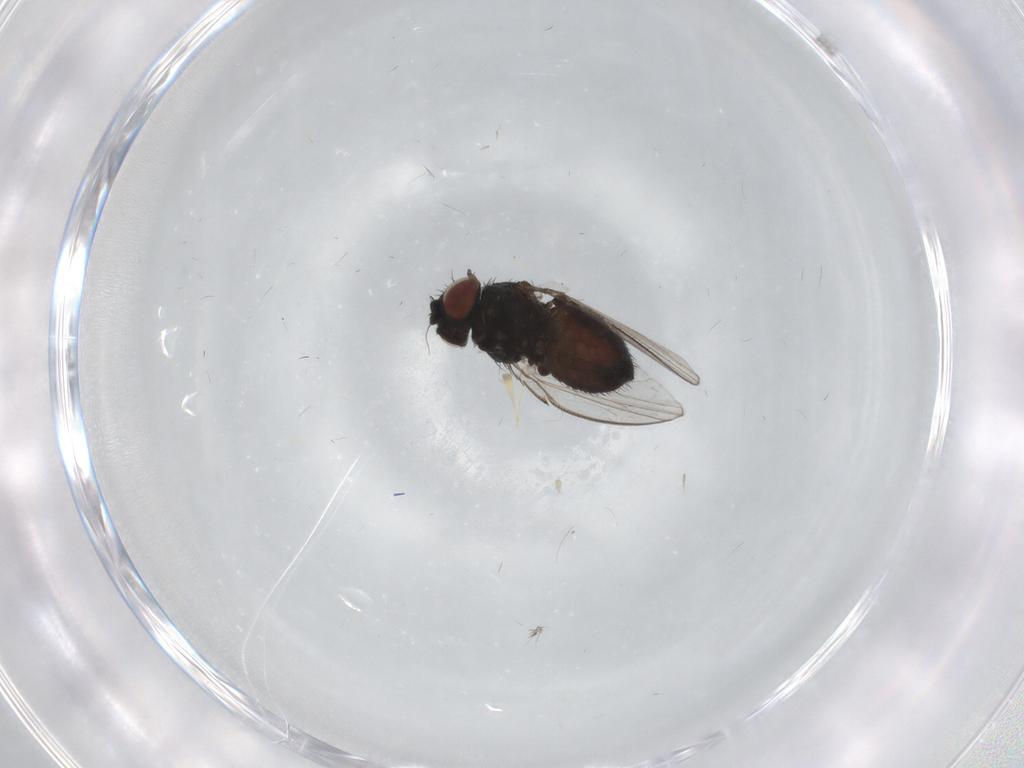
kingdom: Animalia
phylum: Arthropoda
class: Insecta
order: Diptera
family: Milichiidae
